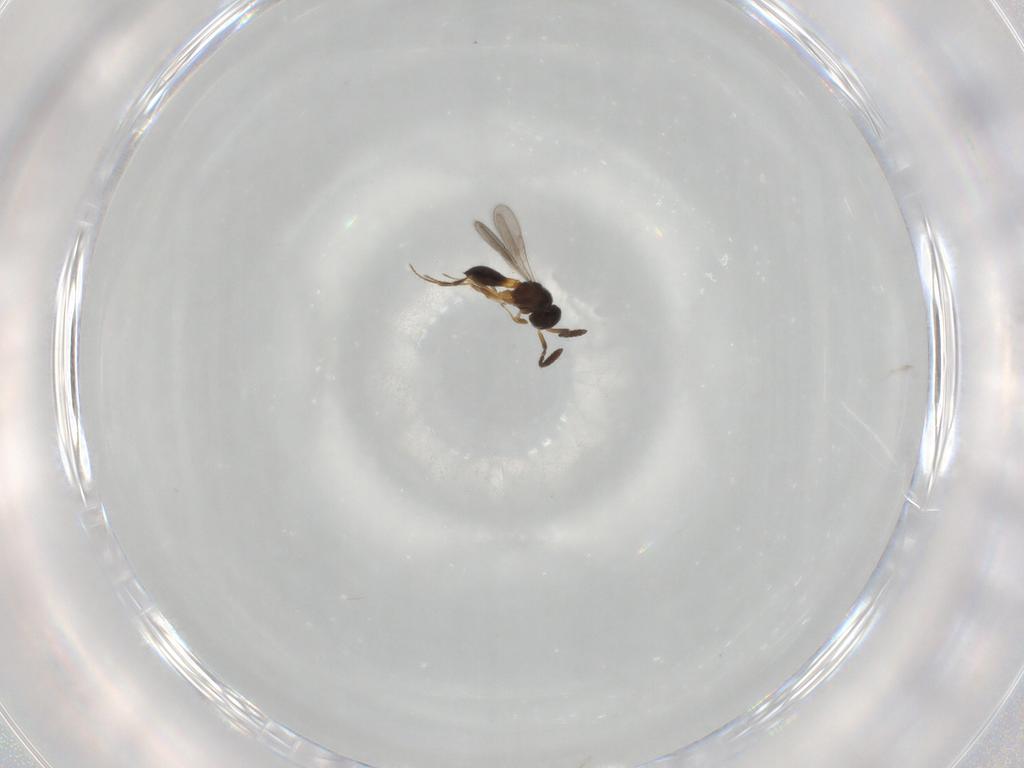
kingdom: Animalia
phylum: Arthropoda
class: Insecta
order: Hymenoptera
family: Scelionidae
